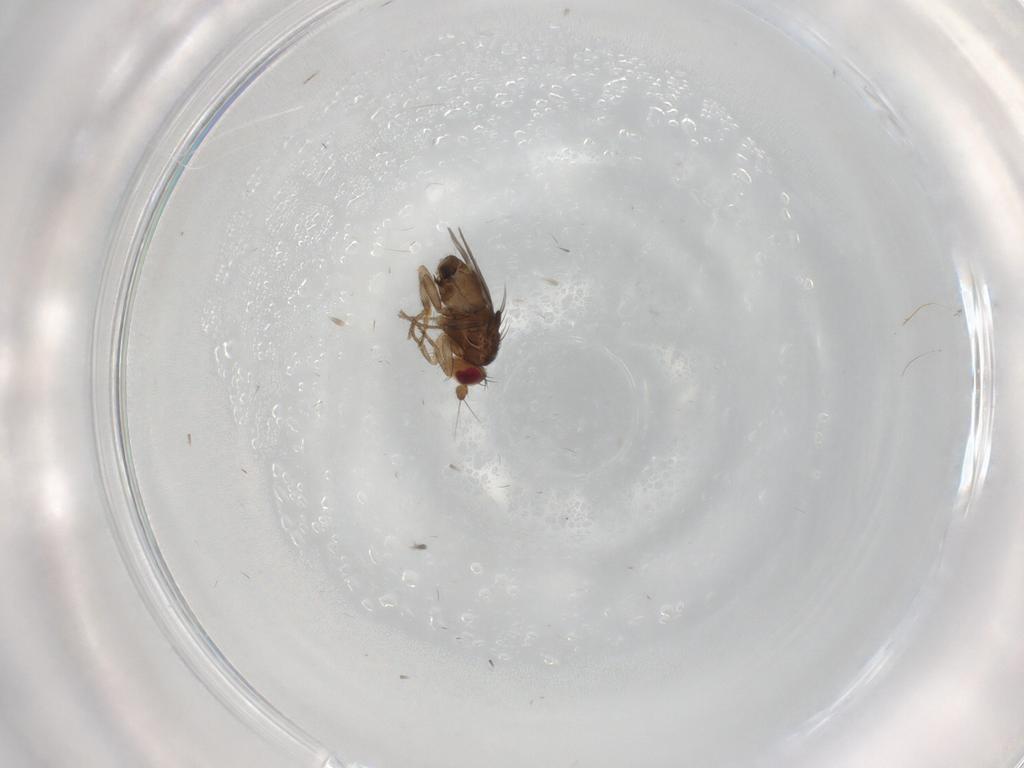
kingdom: Animalia
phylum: Arthropoda
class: Insecta
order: Diptera
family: Sphaeroceridae
